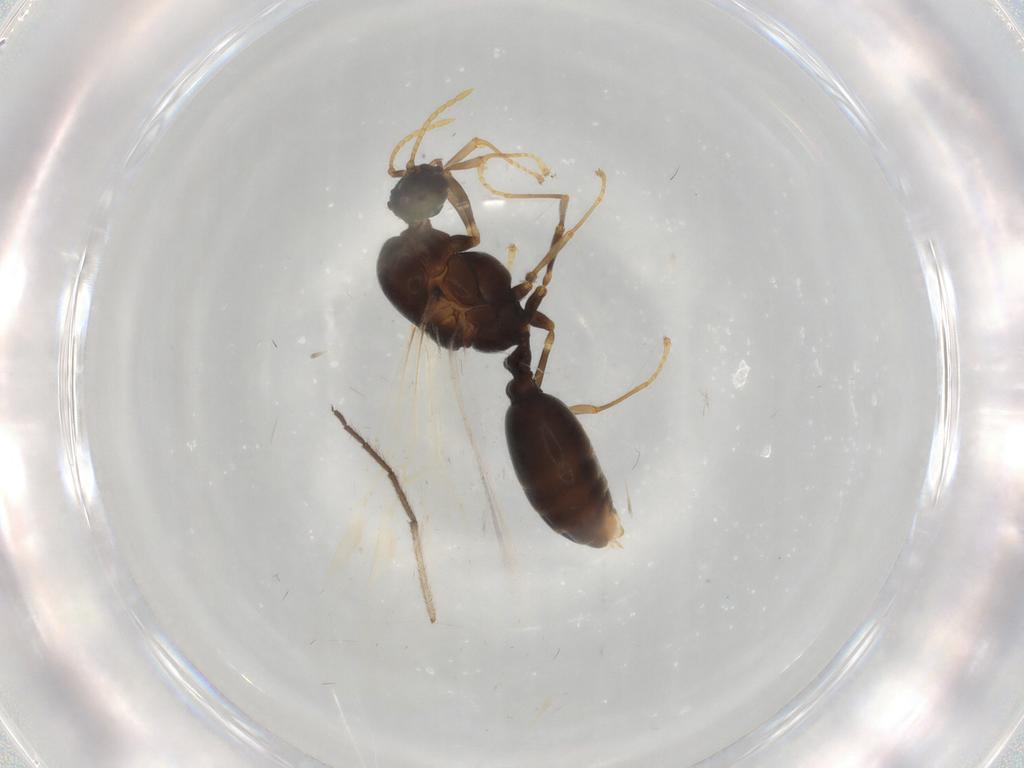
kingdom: Animalia
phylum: Arthropoda
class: Insecta
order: Hymenoptera
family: Formicidae
